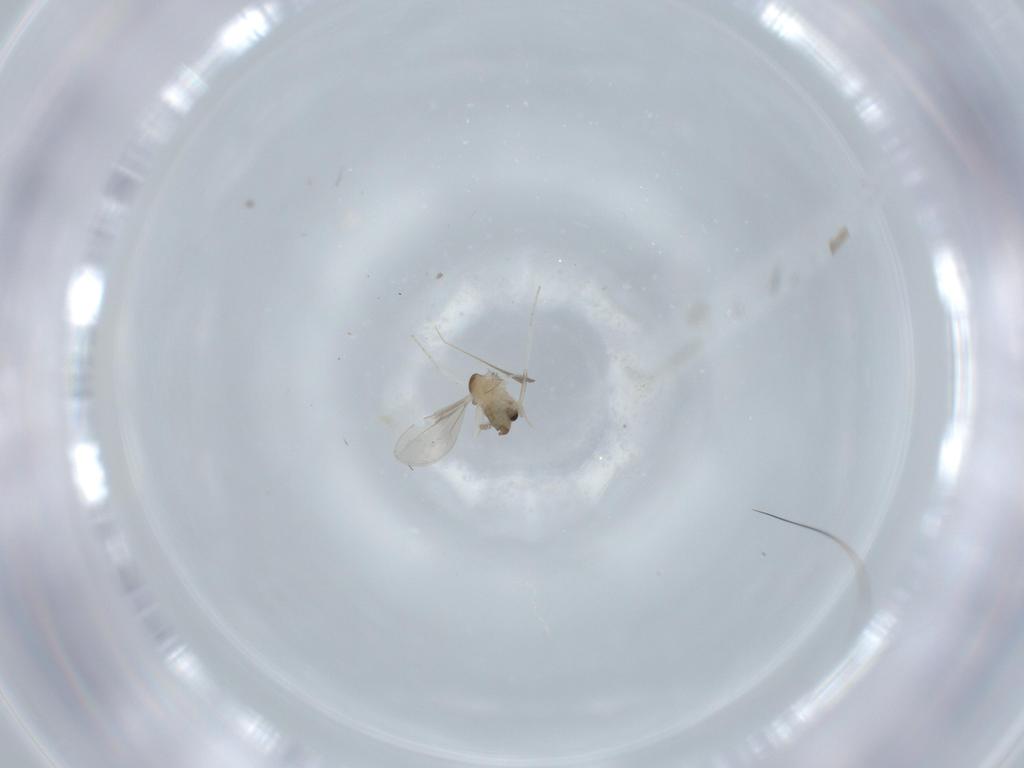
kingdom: Animalia
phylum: Arthropoda
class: Insecta
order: Diptera
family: Cecidomyiidae
